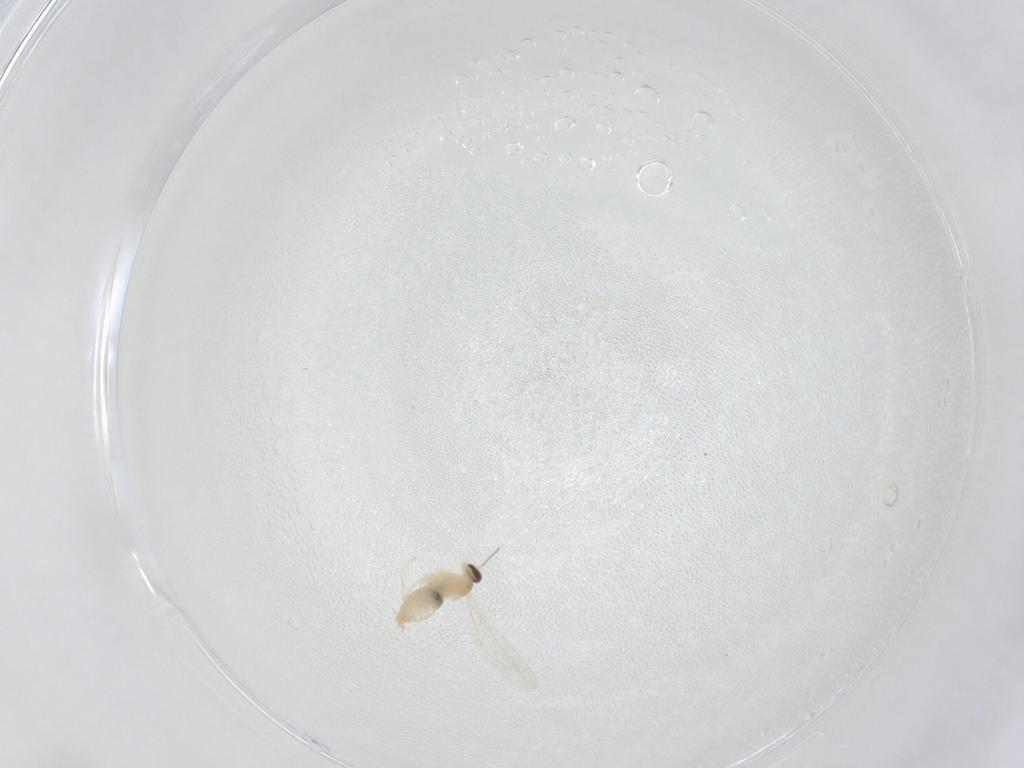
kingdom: Animalia
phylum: Arthropoda
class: Insecta
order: Diptera
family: Cecidomyiidae
